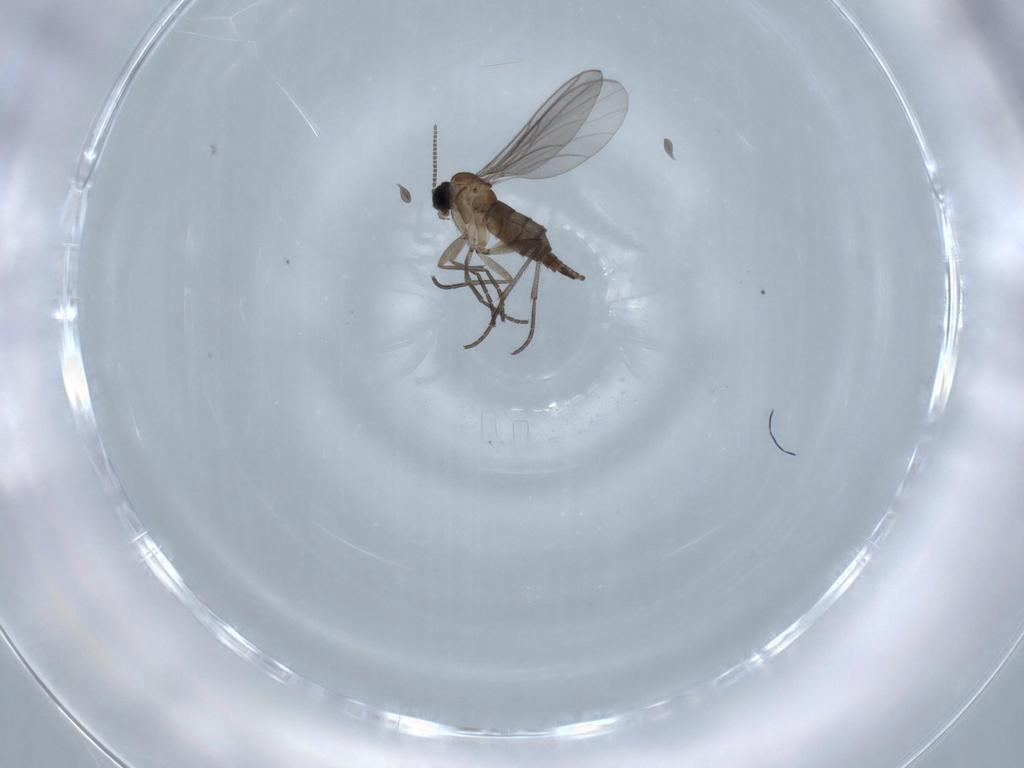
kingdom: Animalia
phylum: Arthropoda
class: Insecta
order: Diptera
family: Sciaridae
